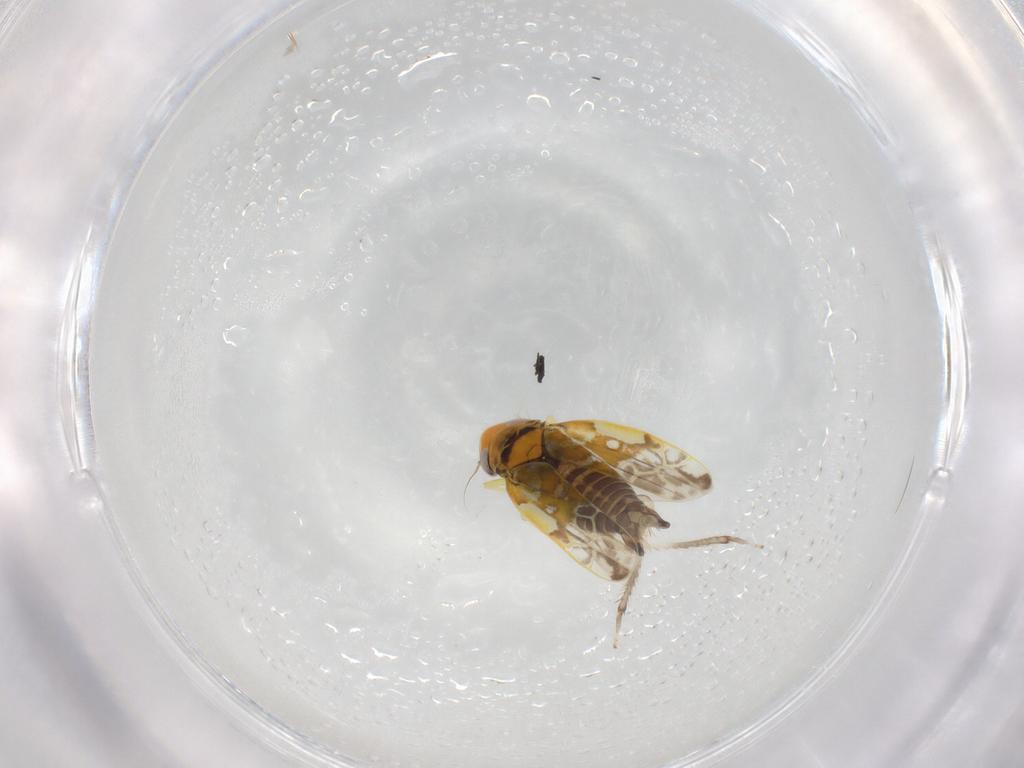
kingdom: Animalia
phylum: Arthropoda
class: Insecta
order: Hemiptera
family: Cicadellidae
